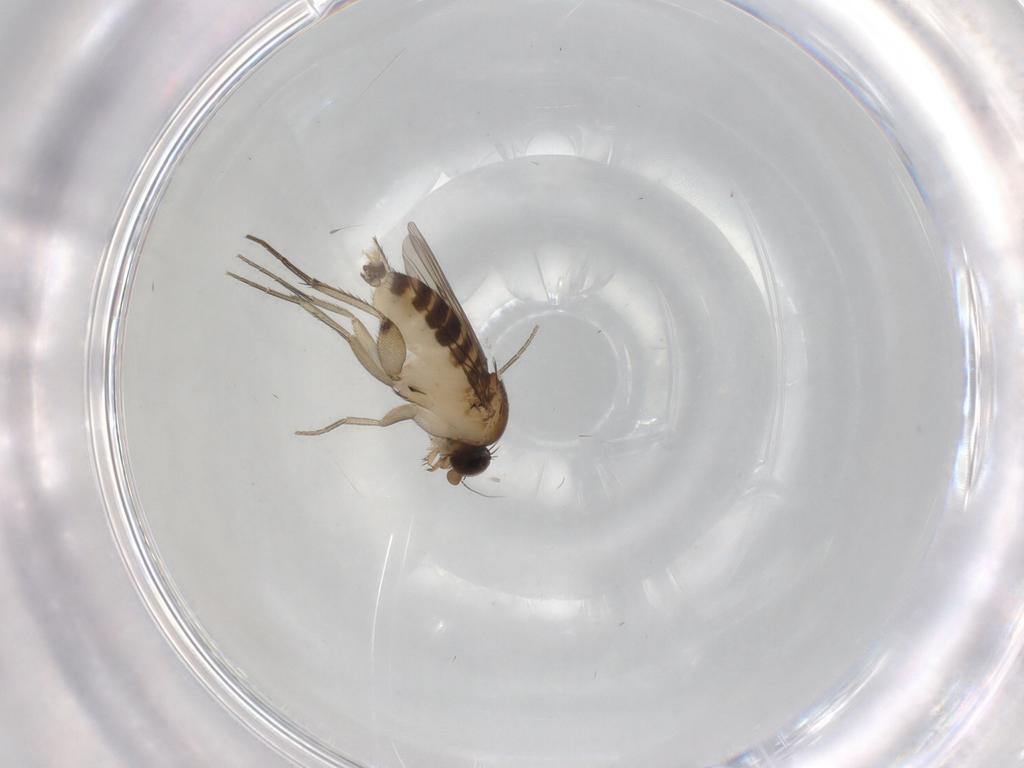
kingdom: Animalia
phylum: Arthropoda
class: Insecta
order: Diptera
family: Phoridae
